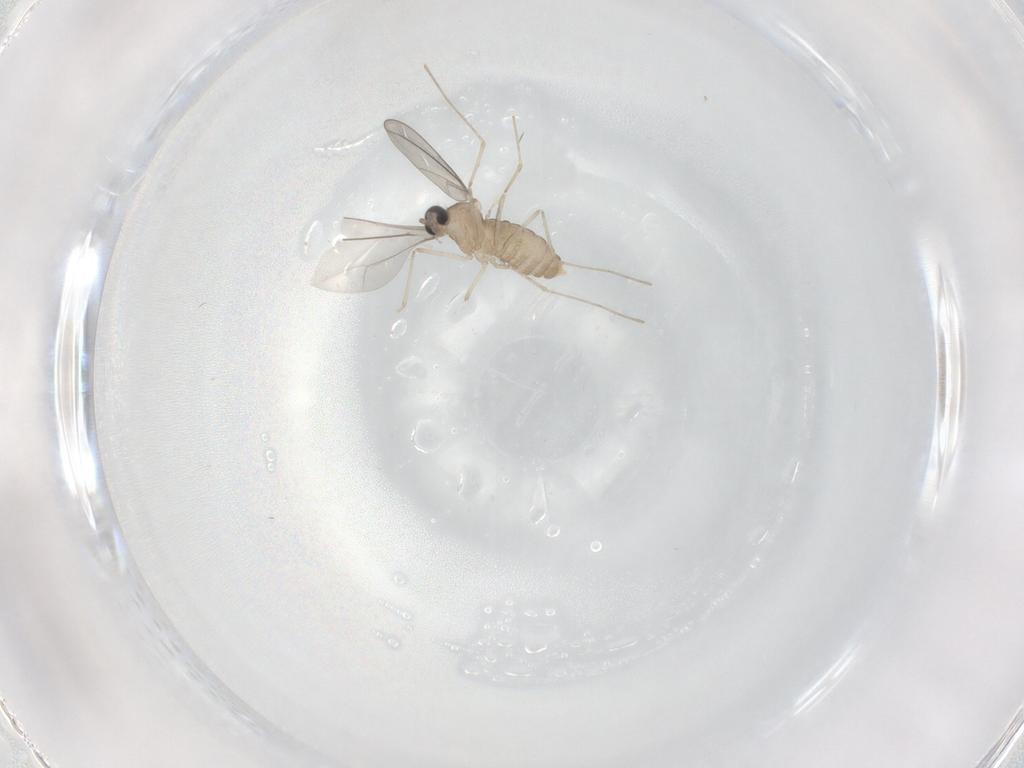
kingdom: Animalia
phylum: Arthropoda
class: Insecta
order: Diptera
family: Cecidomyiidae
